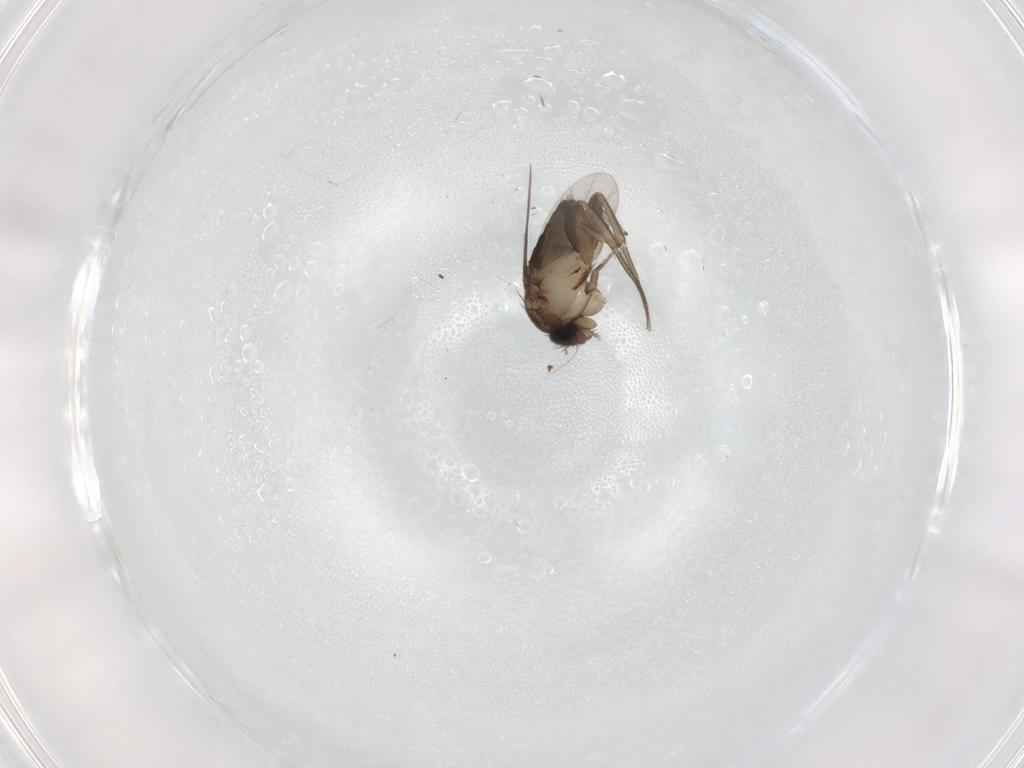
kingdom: Animalia
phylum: Arthropoda
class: Insecta
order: Diptera
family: Phoridae
